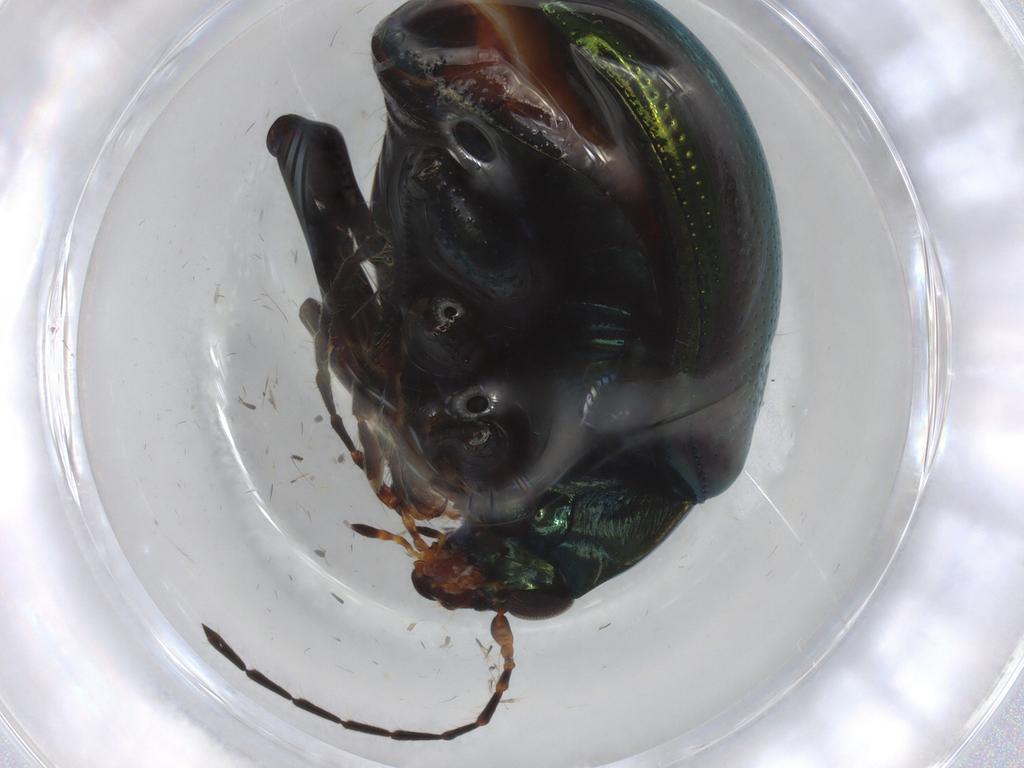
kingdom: Animalia
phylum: Arthropoda
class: Insecta
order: Coleoptera
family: Chrysomelidae
